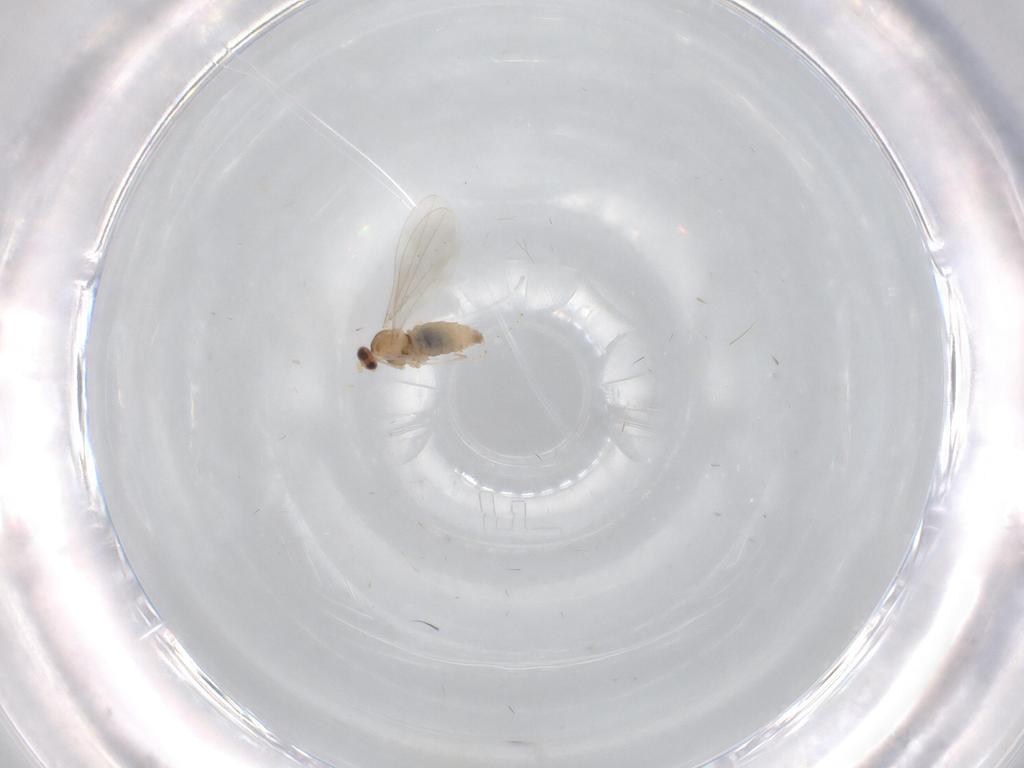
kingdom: Animalia
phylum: Arthropoda
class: Insecta
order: Diptera
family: Limoniidae
